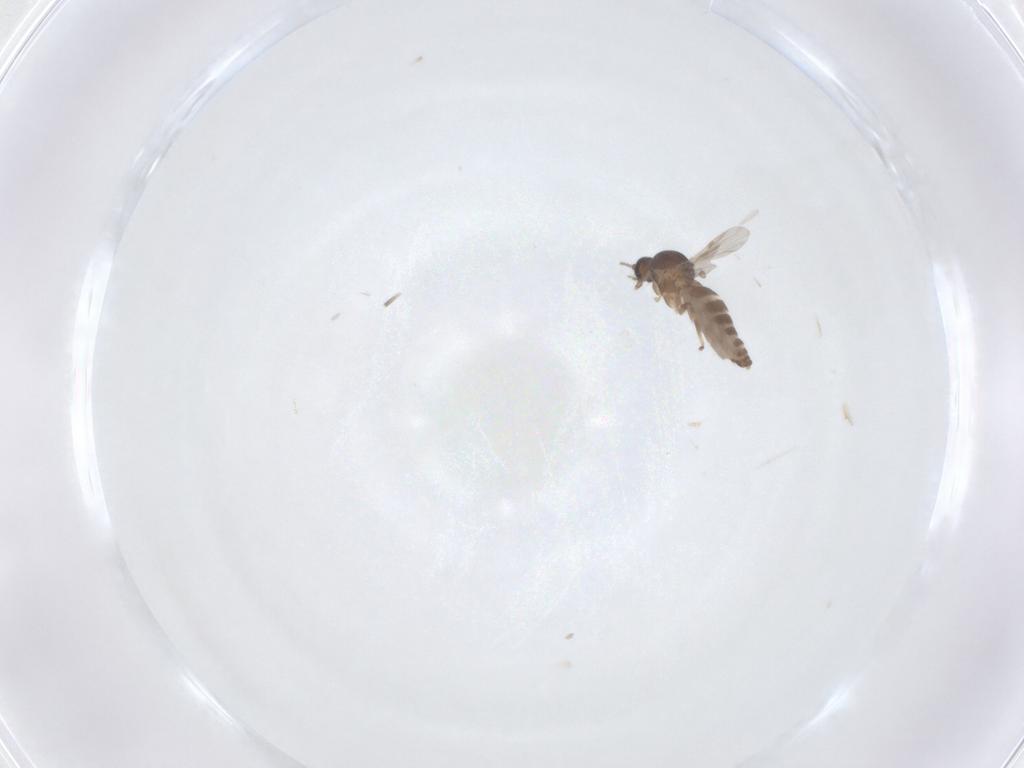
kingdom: Animalia
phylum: Arthropoda
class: Insecta
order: Diptera
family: Ceratopogonidae
